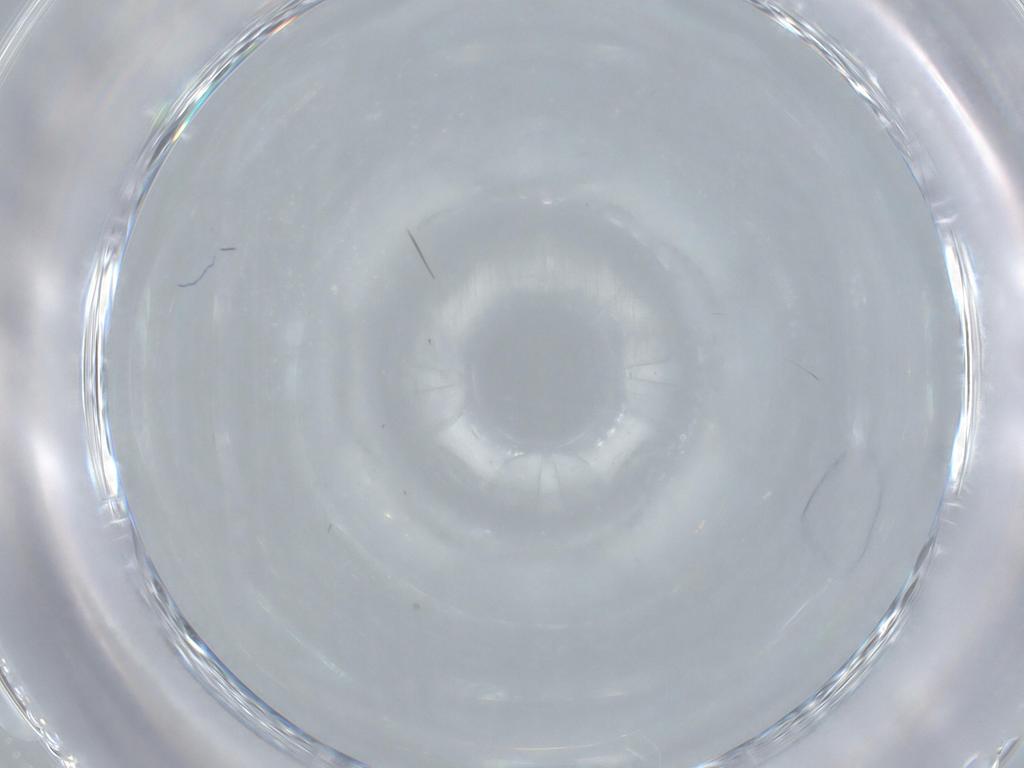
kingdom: Animalia
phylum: Arthropoda
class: Insecta
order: Diptera
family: Cecidomyiidae
